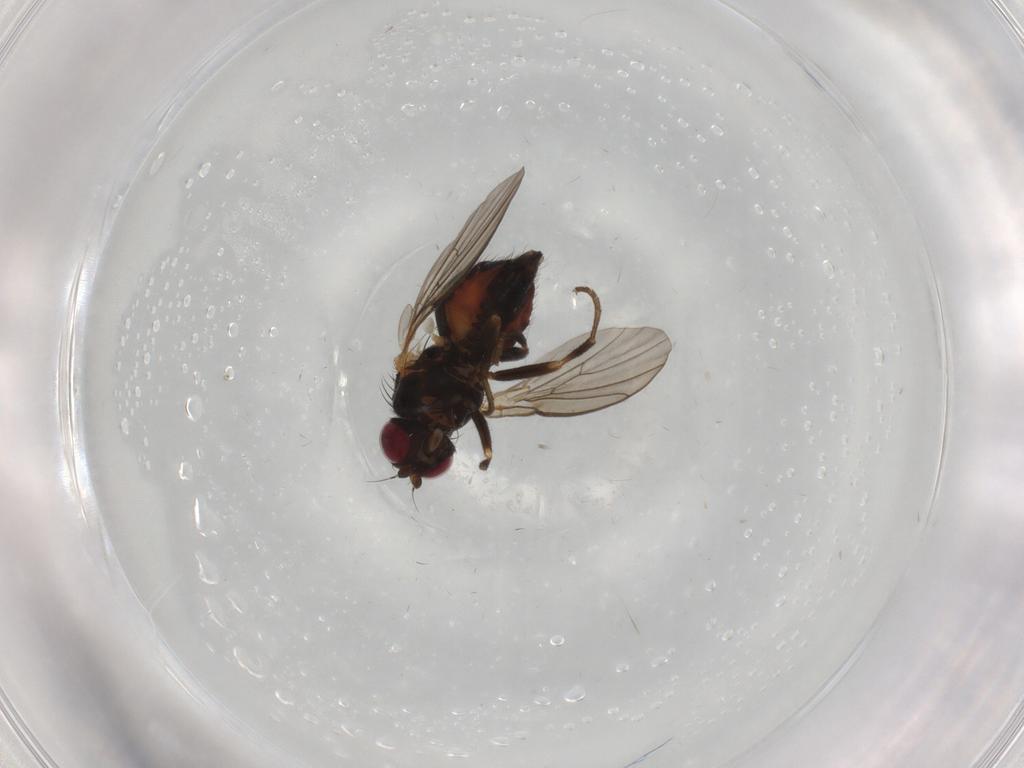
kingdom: Animalia
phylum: Arthropoda
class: Insecta
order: Diptera
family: Agromyzidae
